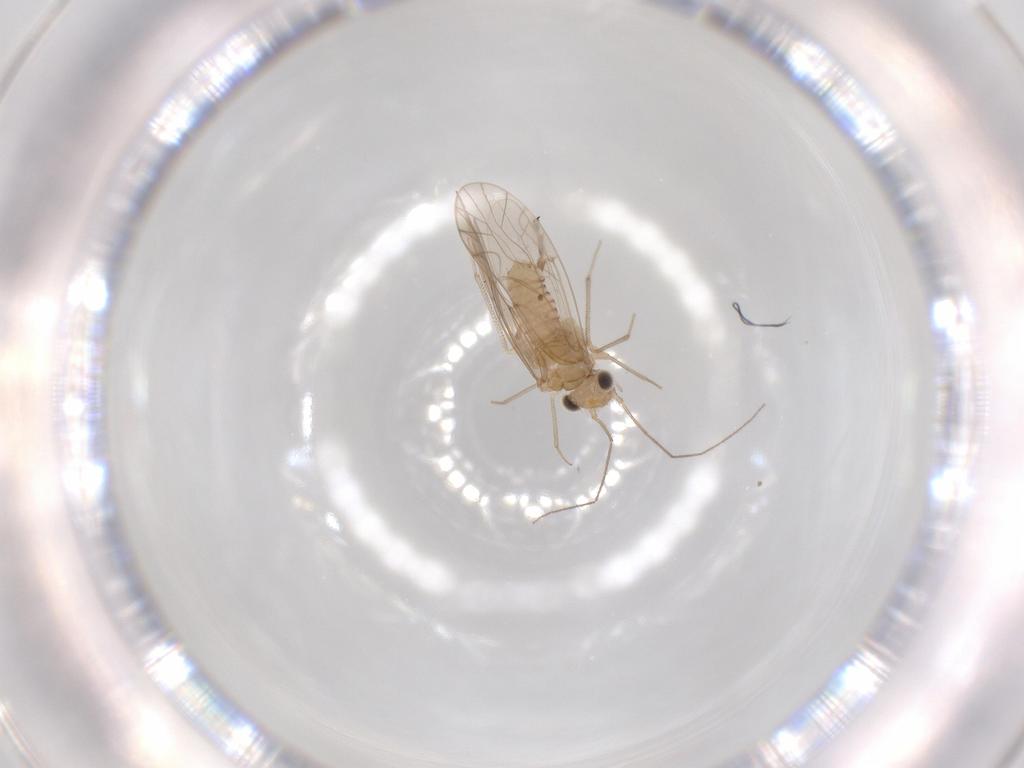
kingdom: Animalia
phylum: Arthropoda
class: Insecta
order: Psocodea
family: Lachesillidae
